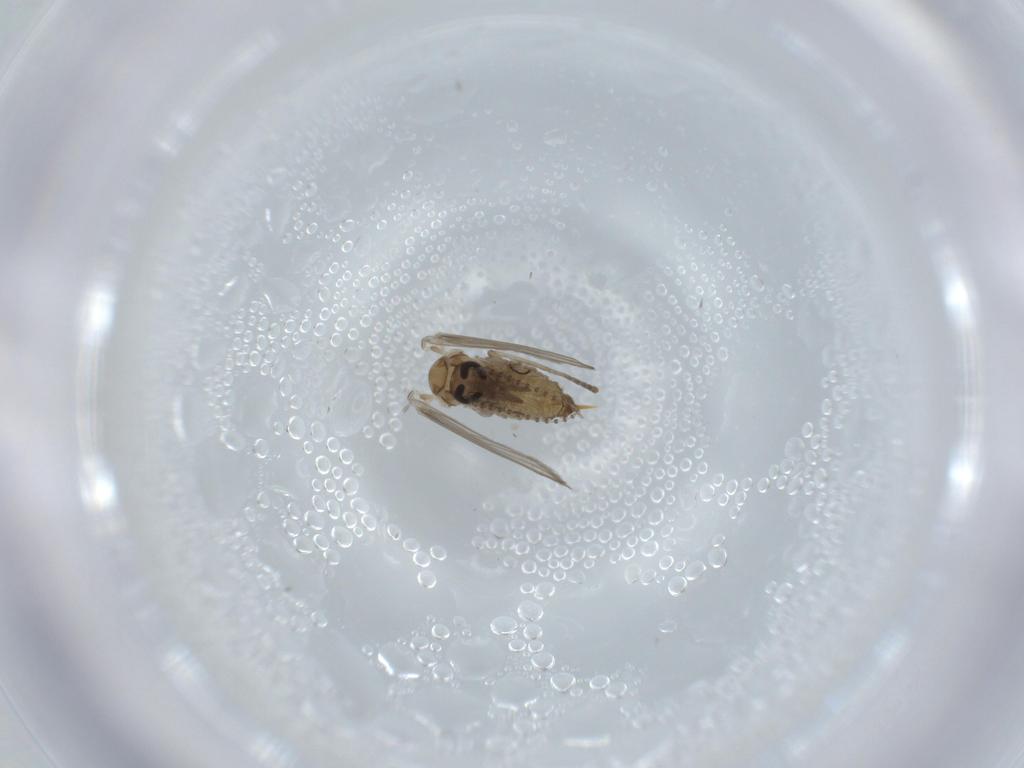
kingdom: Animalia
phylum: Arthropoda
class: Insecta
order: Diptera
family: Psychodidae
